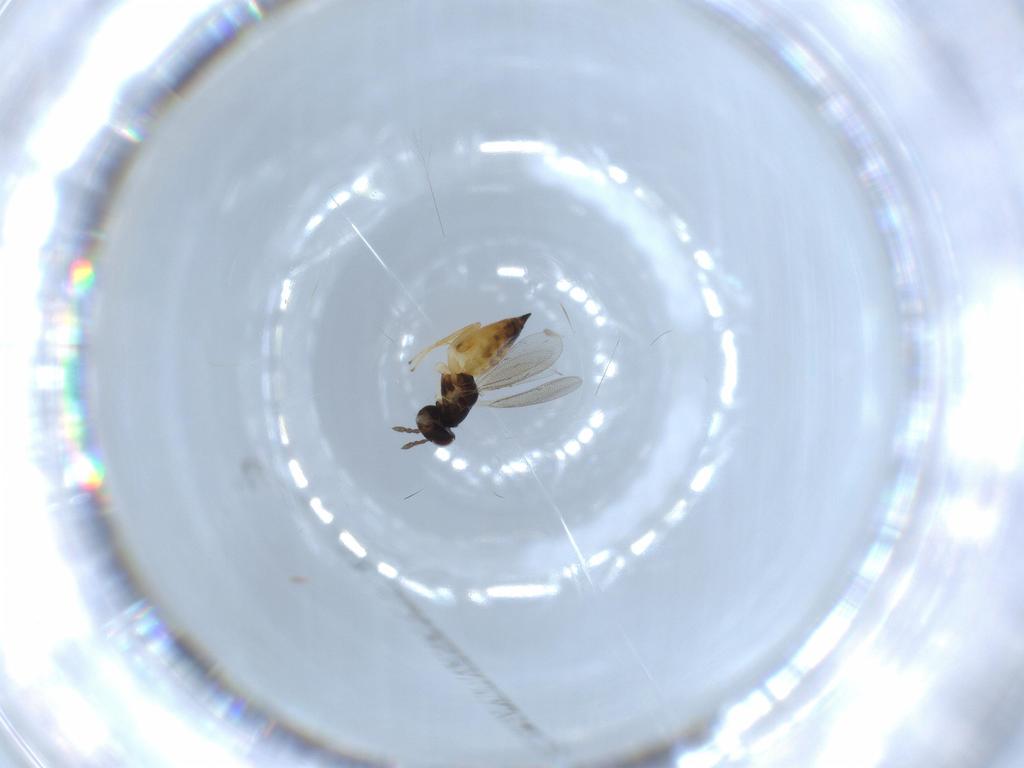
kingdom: Animalia
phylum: Arthropoda
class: Insecta
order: Hymenoptera
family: Eulophidae
